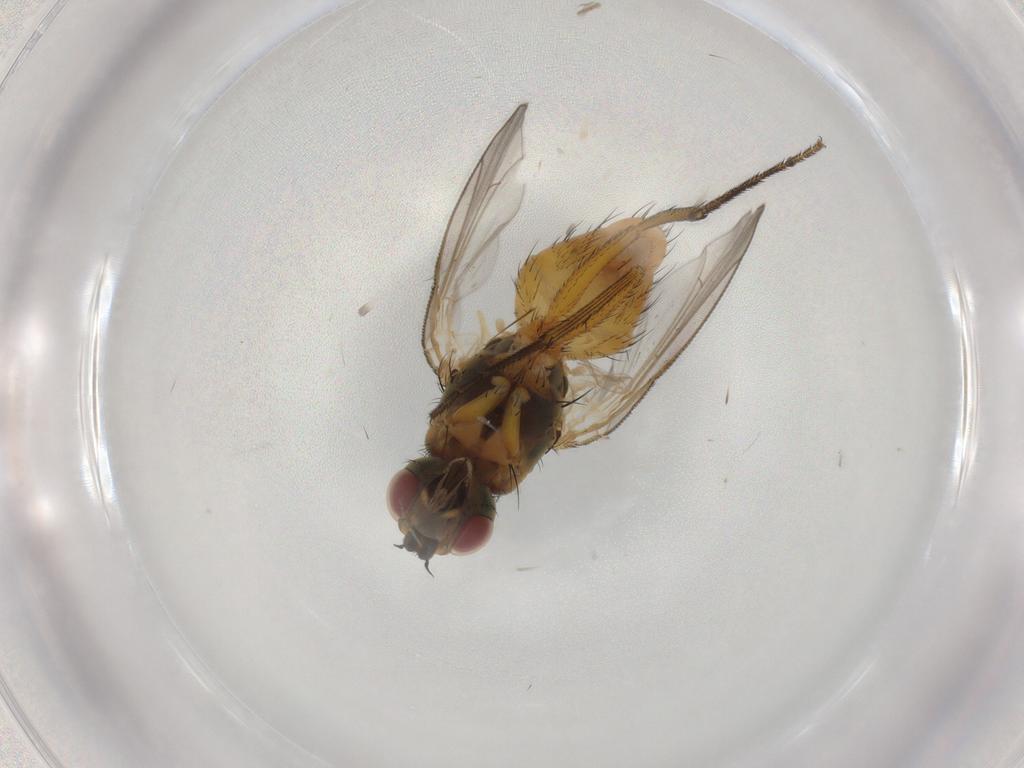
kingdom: Animalia
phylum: Arthropoda
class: Insecta
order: Diptera
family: Muscidae
